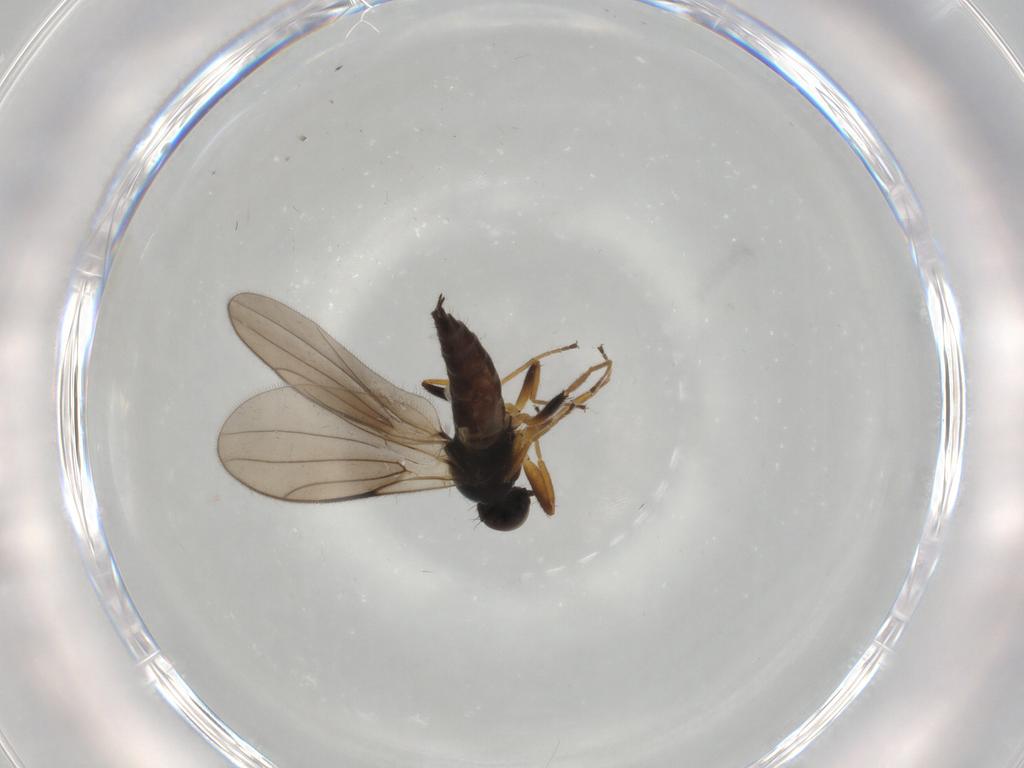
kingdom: Animalia
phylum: Arthropoda
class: Insecta
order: Diptera
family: Hybotidae
